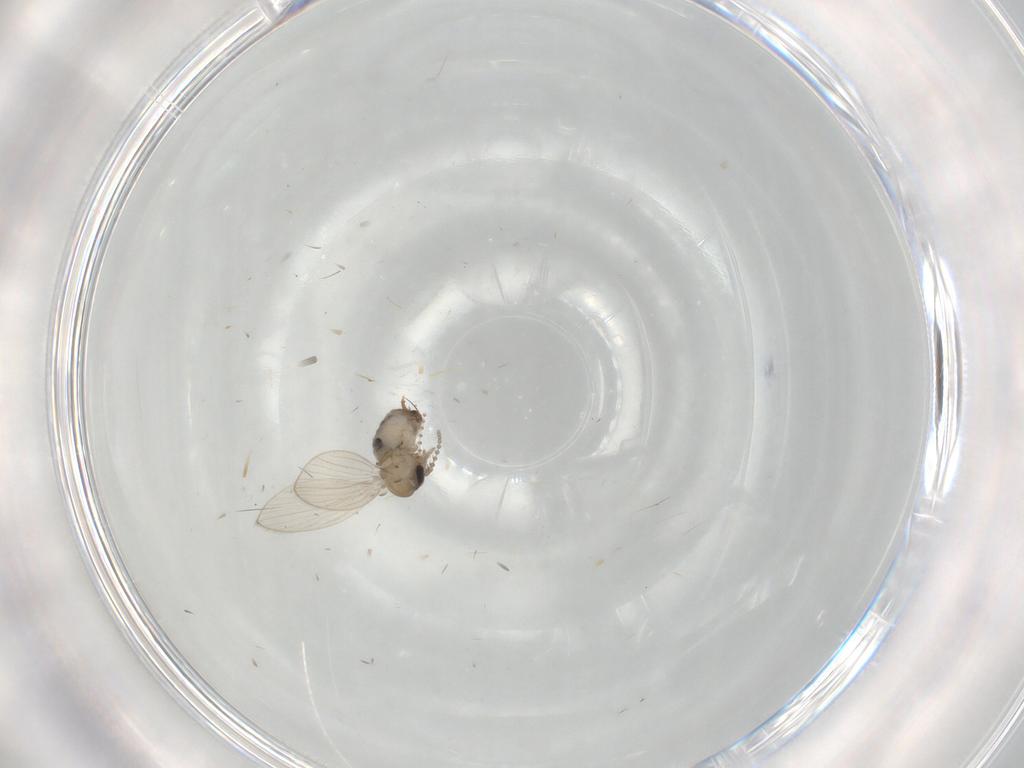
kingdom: Animalia
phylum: Arthropoda
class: Insecta
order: Diptera
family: Psychodidae
